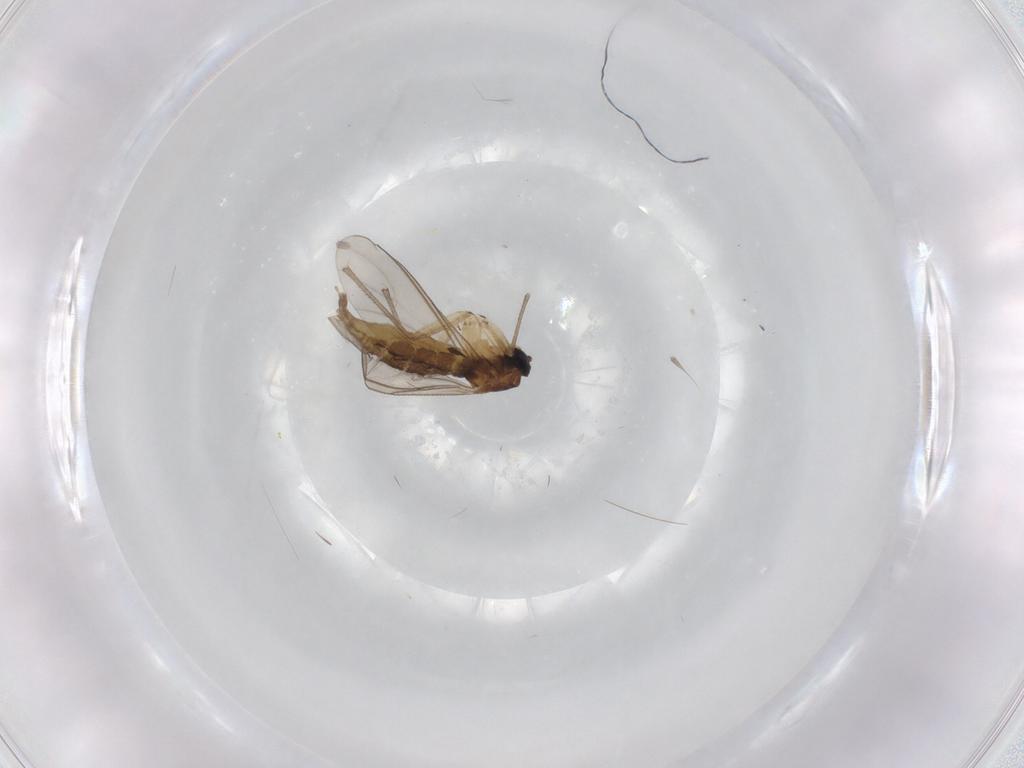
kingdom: Animalia
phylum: Arthropoda
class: Insecta
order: Diptera
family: Sciaridae
